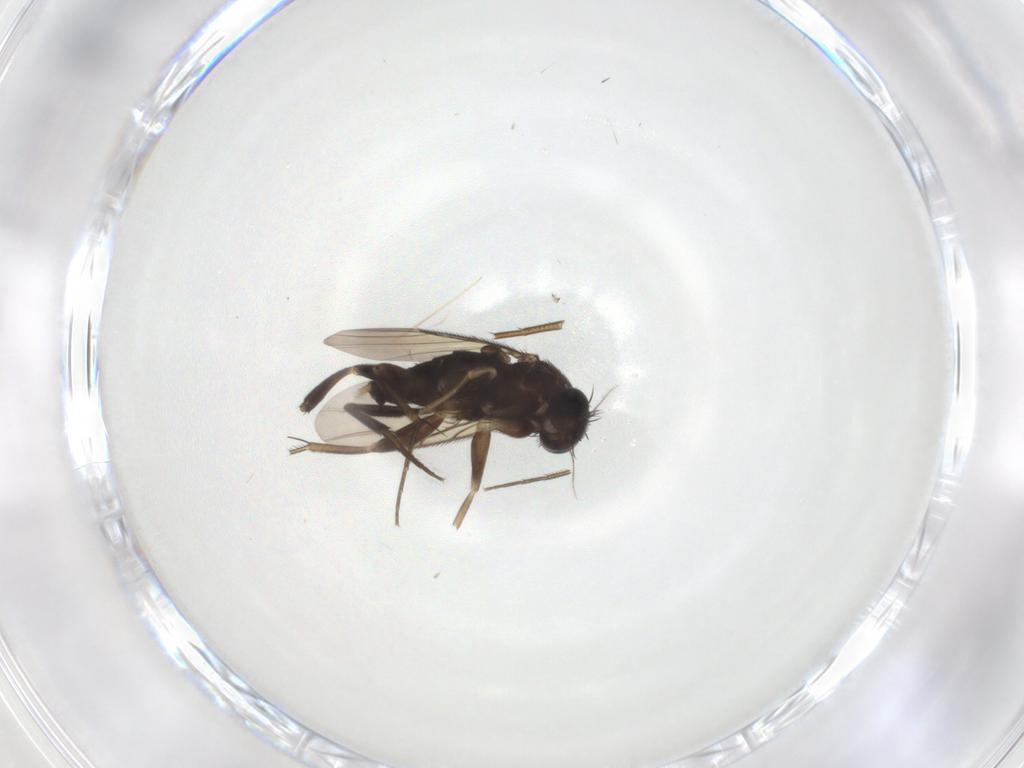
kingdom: Animalia
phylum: Arthropoda
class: Insecta
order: Diptera
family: Phoridae
